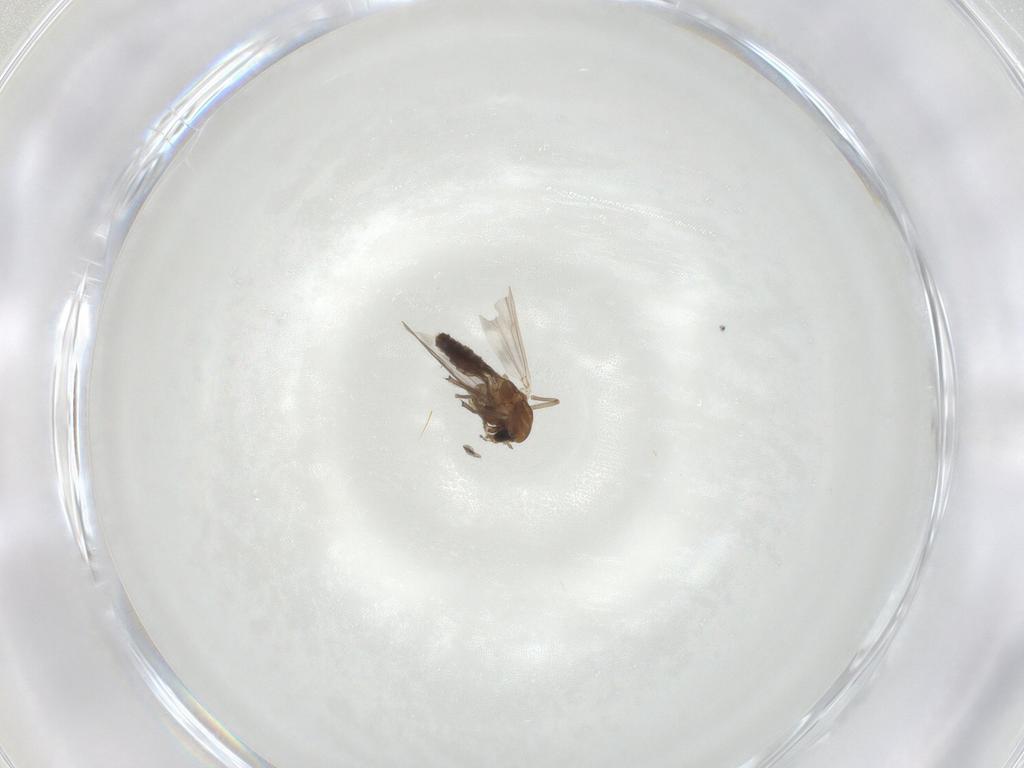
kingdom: Animalia
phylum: Arthropoda
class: Insecta
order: Diptera
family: Chironomidae
